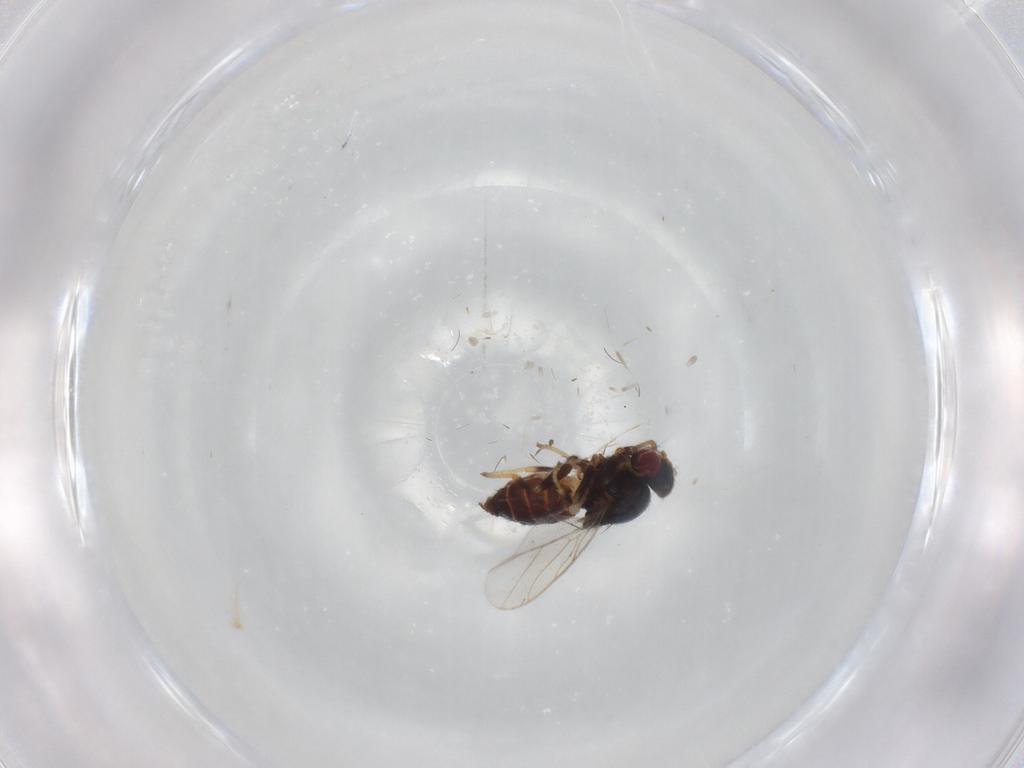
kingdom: Animalia
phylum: Arthropoda
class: Insecta
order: Diptera
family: Chloropidae
